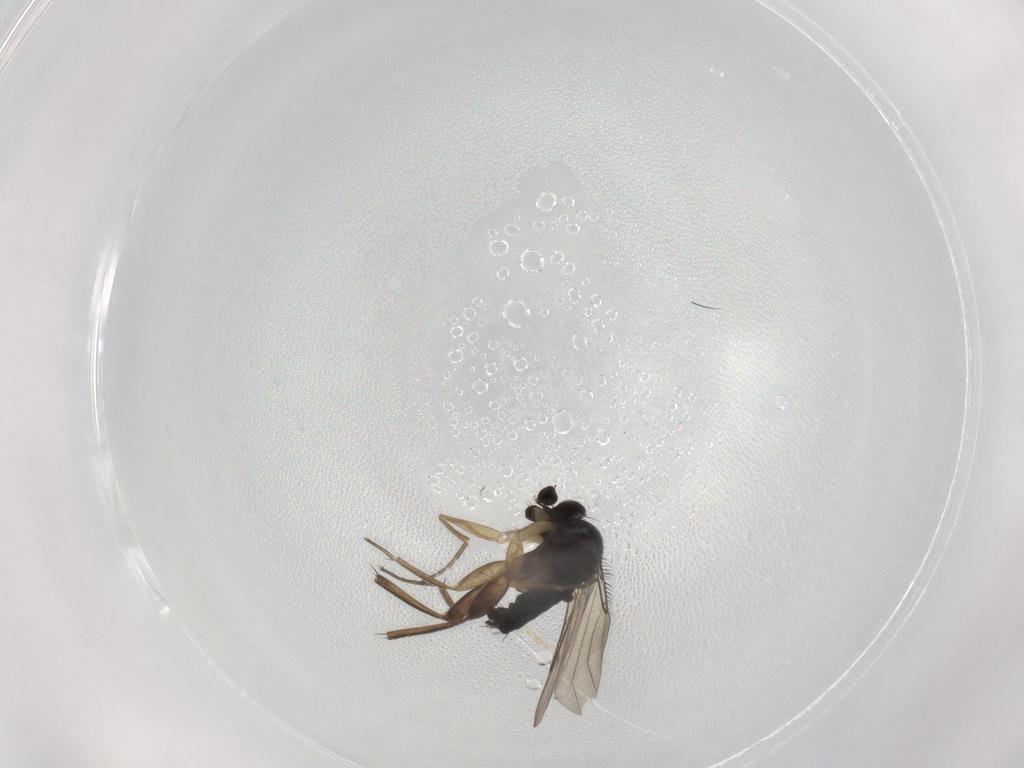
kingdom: Animalia
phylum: Arthropoda
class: Insecta
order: Diptera
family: Phoridae
